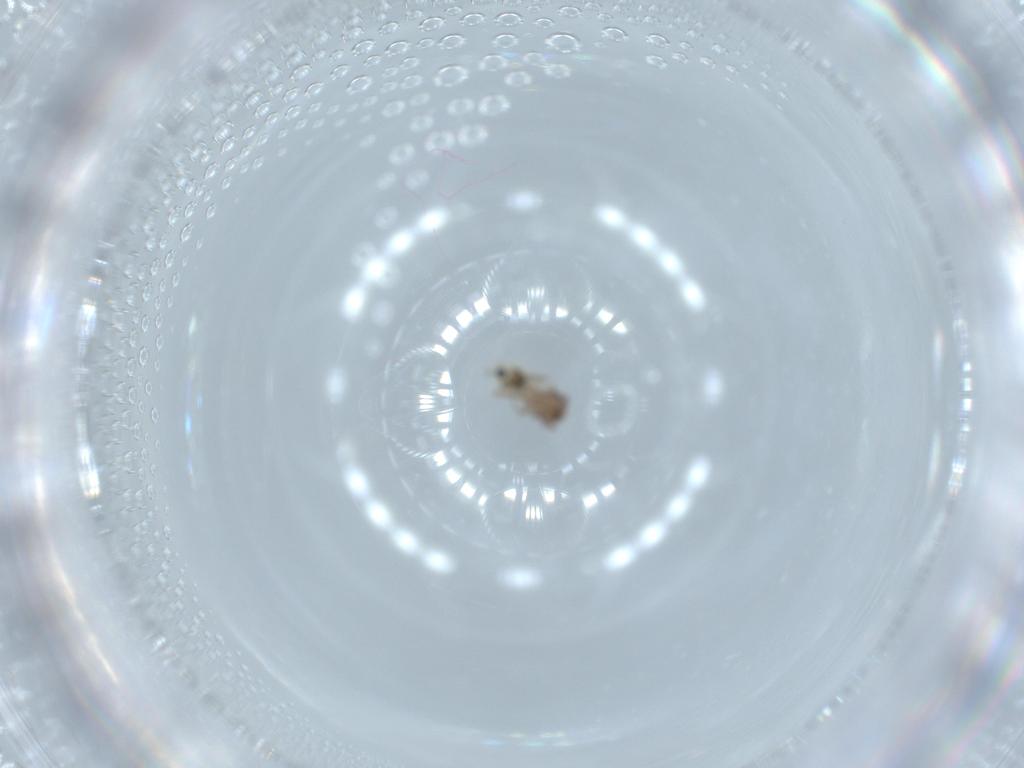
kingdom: Animalia
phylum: Arthropoda
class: Insecta
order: Psocodea
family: Lepidopsocidae
